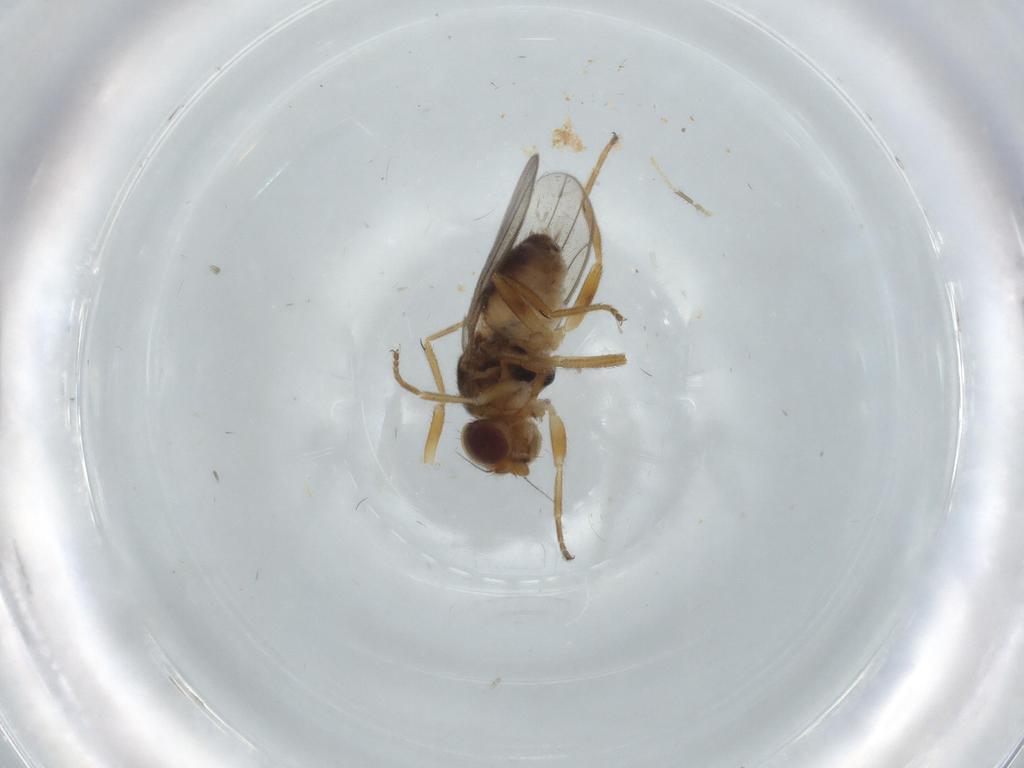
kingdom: Animalia
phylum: Arthropoda
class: Insecta
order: Diptera
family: Chloropidae
